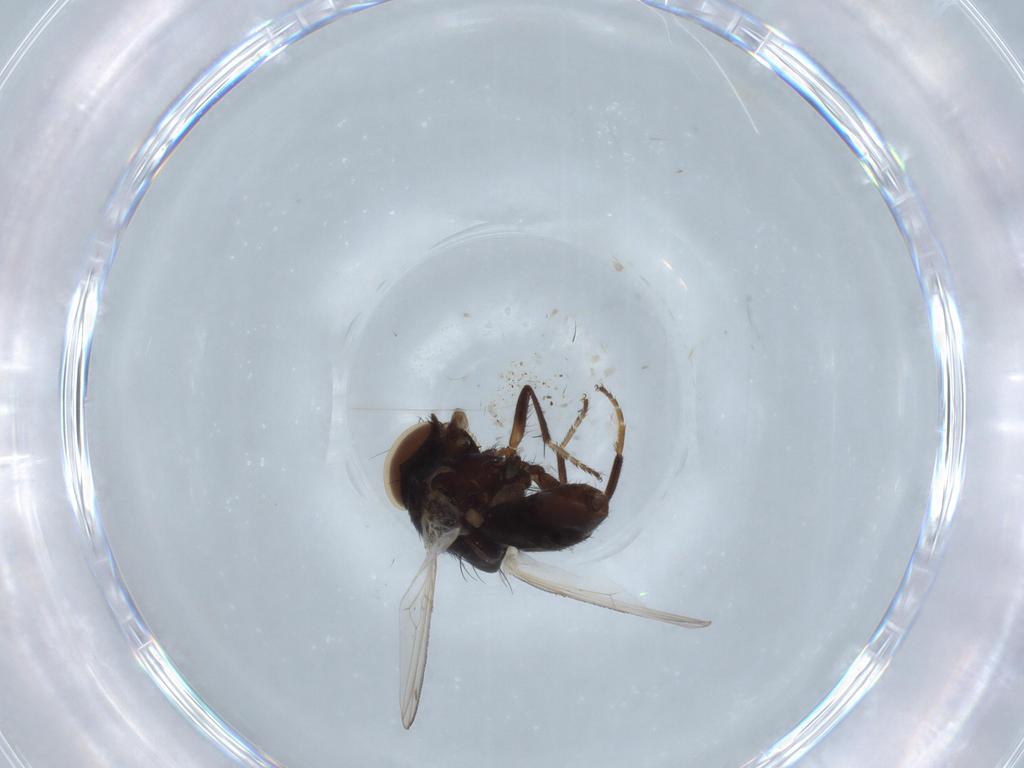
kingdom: Animalia
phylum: Arthropoda
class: Insecta
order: Diptera
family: Milichiidae
